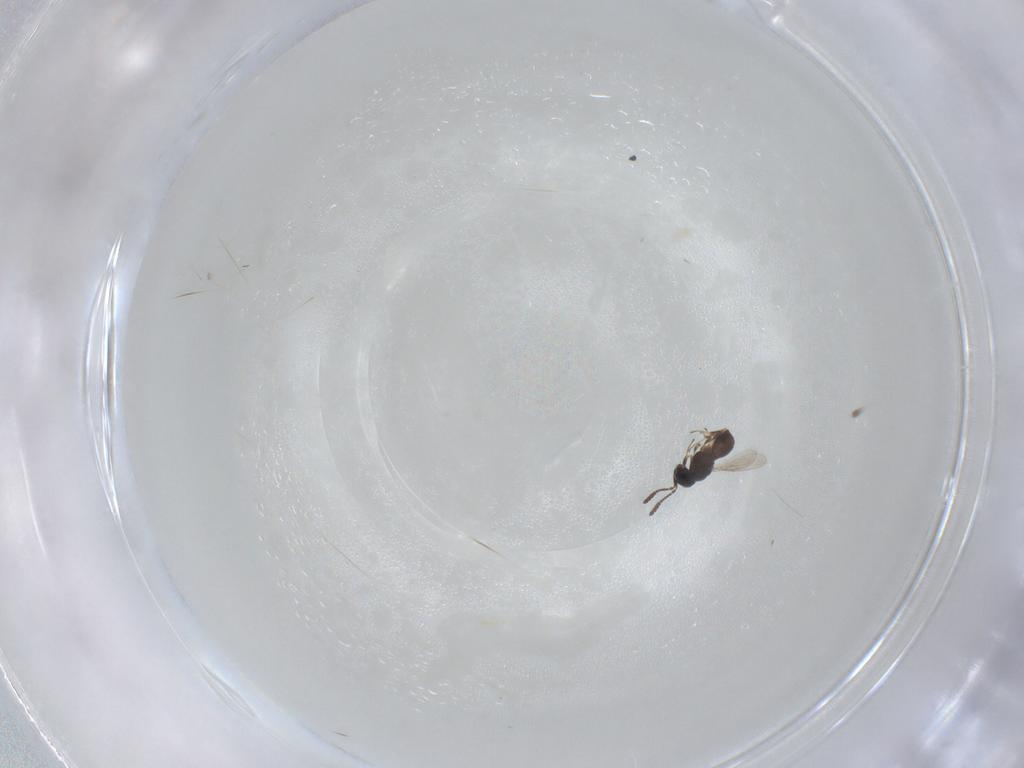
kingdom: Animalia
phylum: Arthropoda
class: Insecta
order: Hymenoptera
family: Scelionidae
